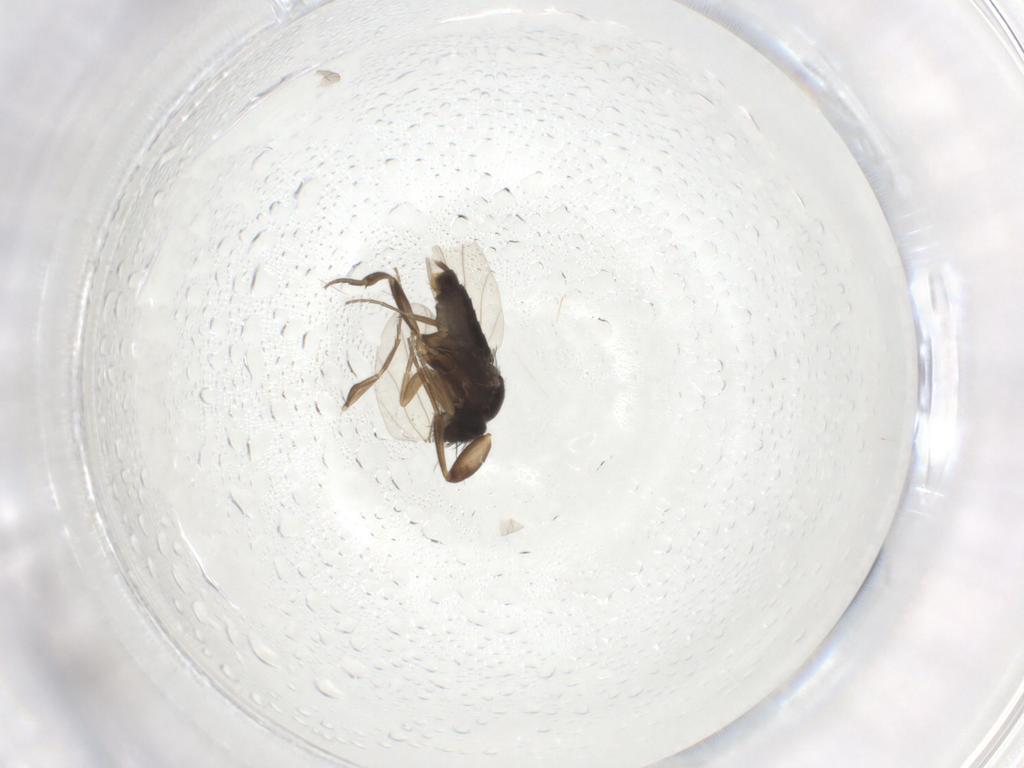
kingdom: Animalia
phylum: Arthropoda
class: Insecta
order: Diptera
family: Phoridae
